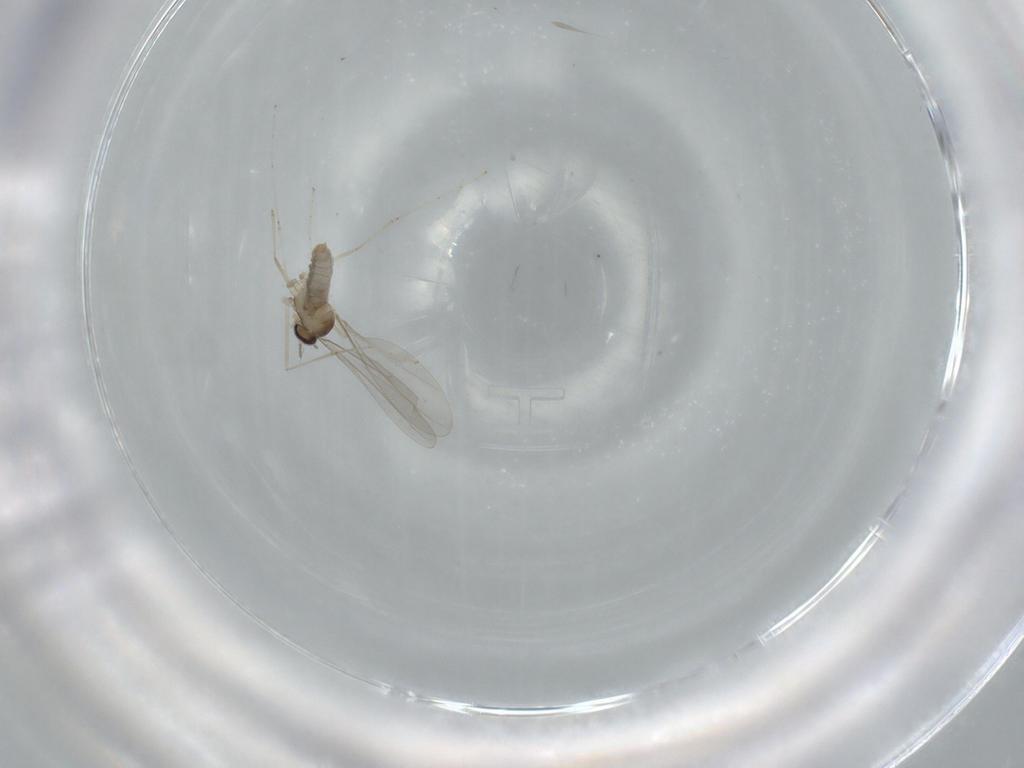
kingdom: Animalia
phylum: Arthropoda
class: Insecta
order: Diptera
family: Cecidomyiidae
